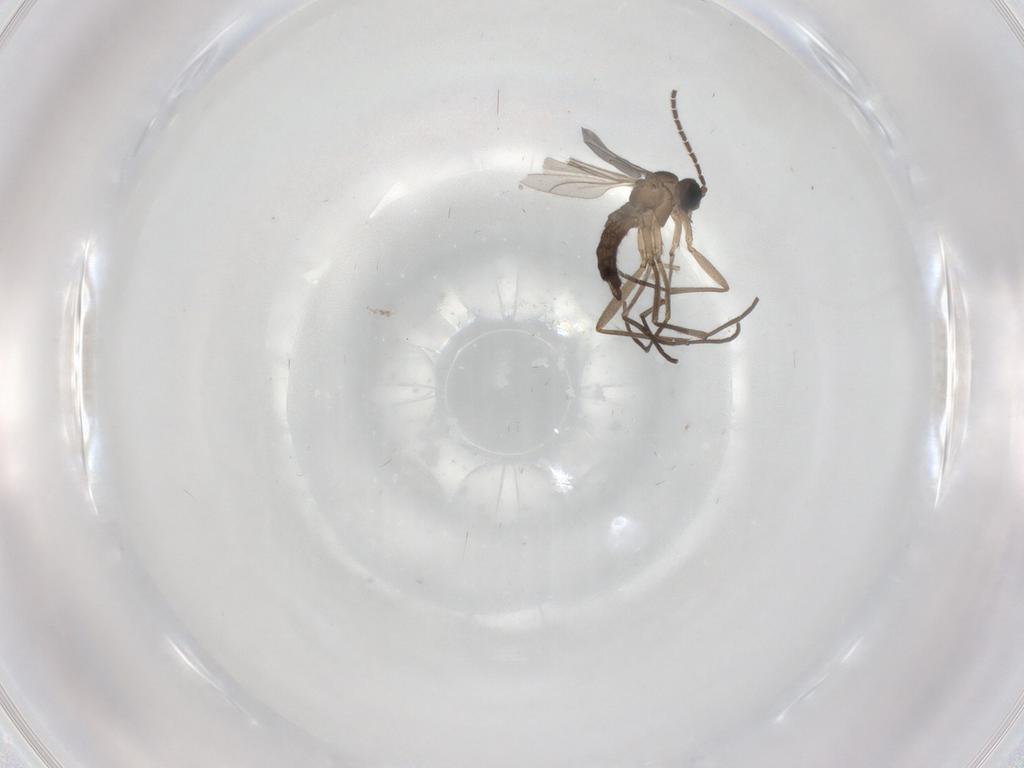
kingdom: Animalia
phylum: Arthropoda
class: Insecta
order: Diptera
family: Sciaridae
